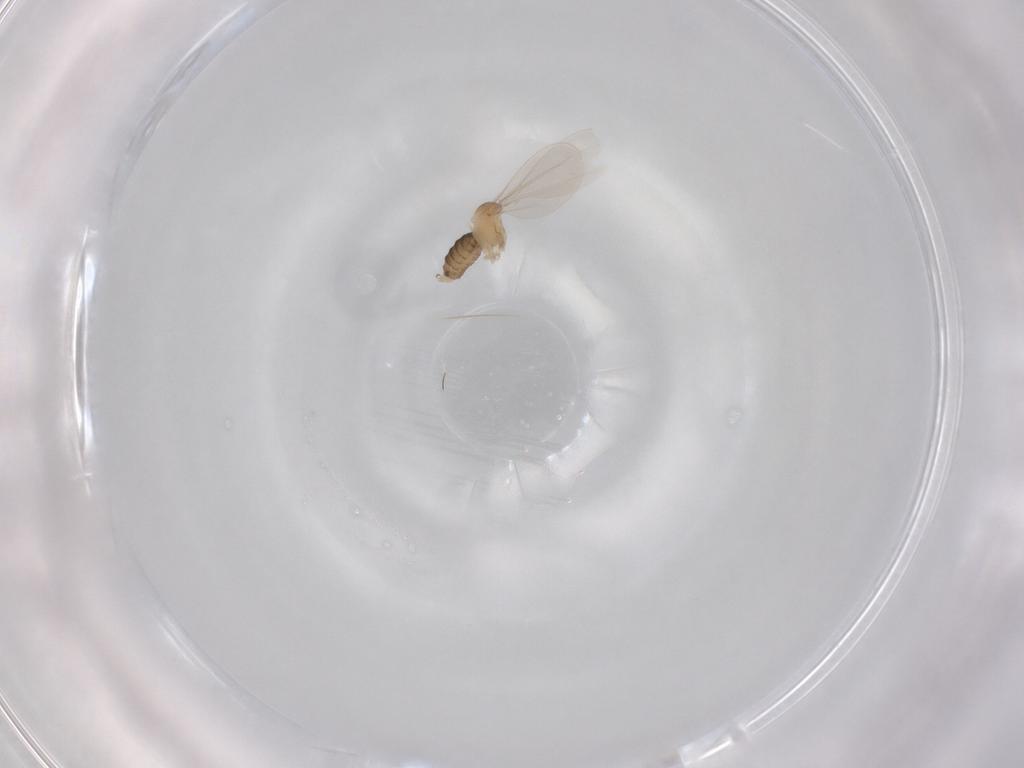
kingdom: Animalia
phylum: Arthropoda
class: Insecta
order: Diptera
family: Cecidomyiidae
